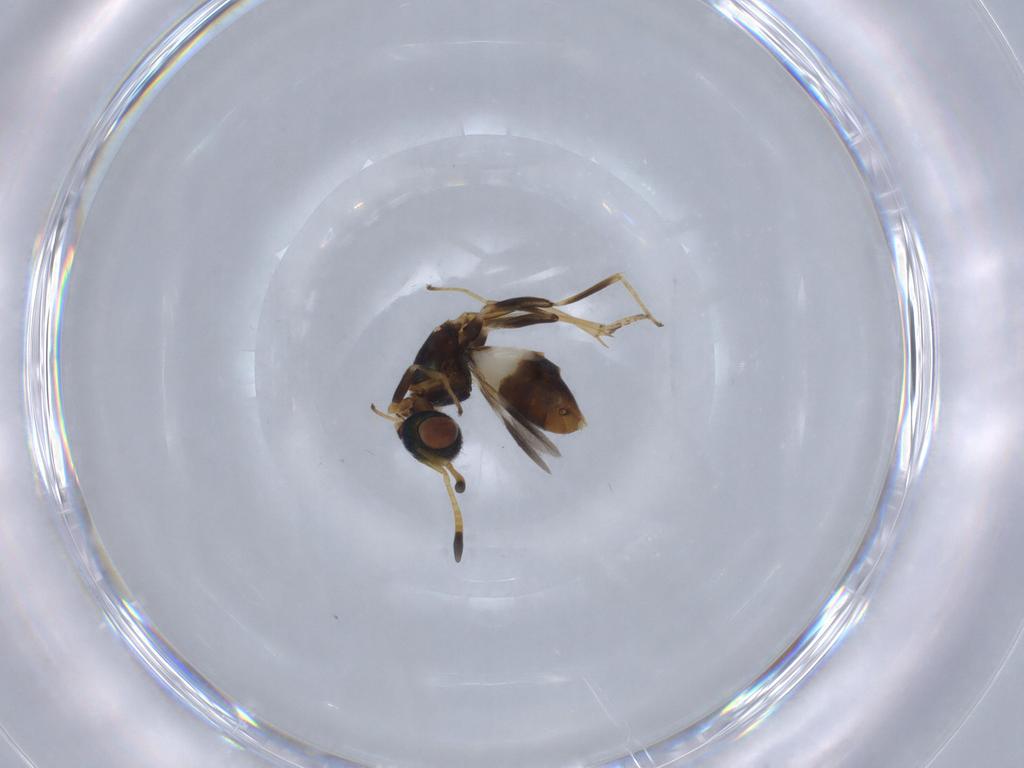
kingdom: Animalia
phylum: Arthropoda
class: Insecta
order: Hymenoptera
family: Eupelmidae
